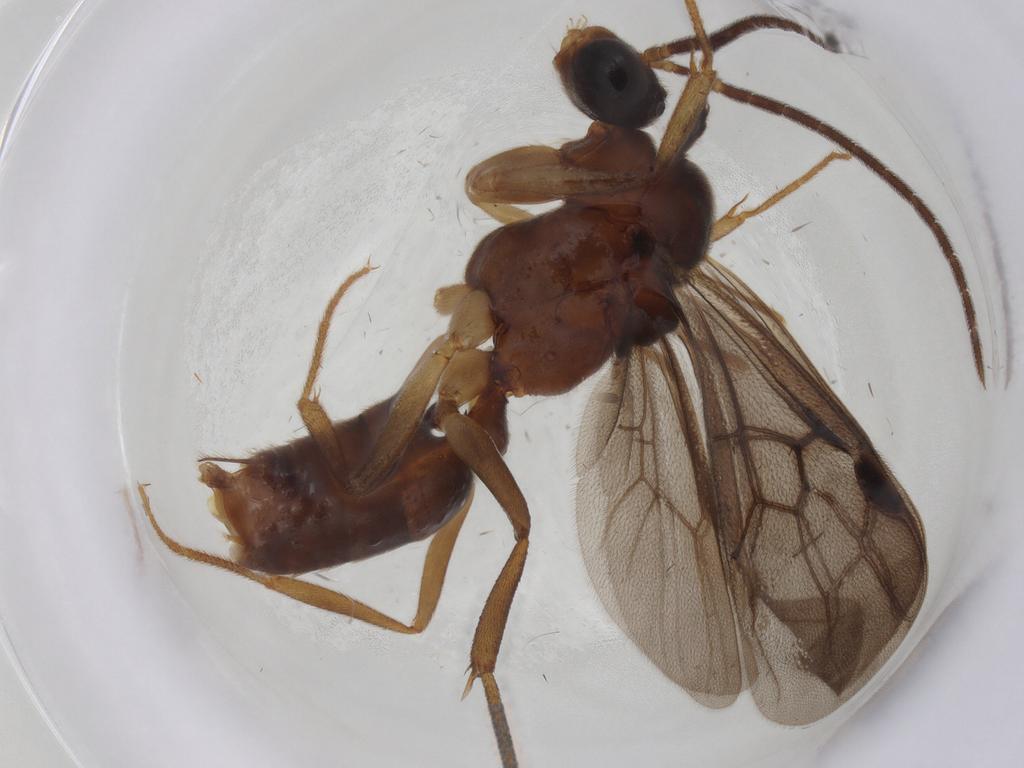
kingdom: Animalia
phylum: Arthropoda
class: Insecta
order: Hymenoptera
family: Formicidae
